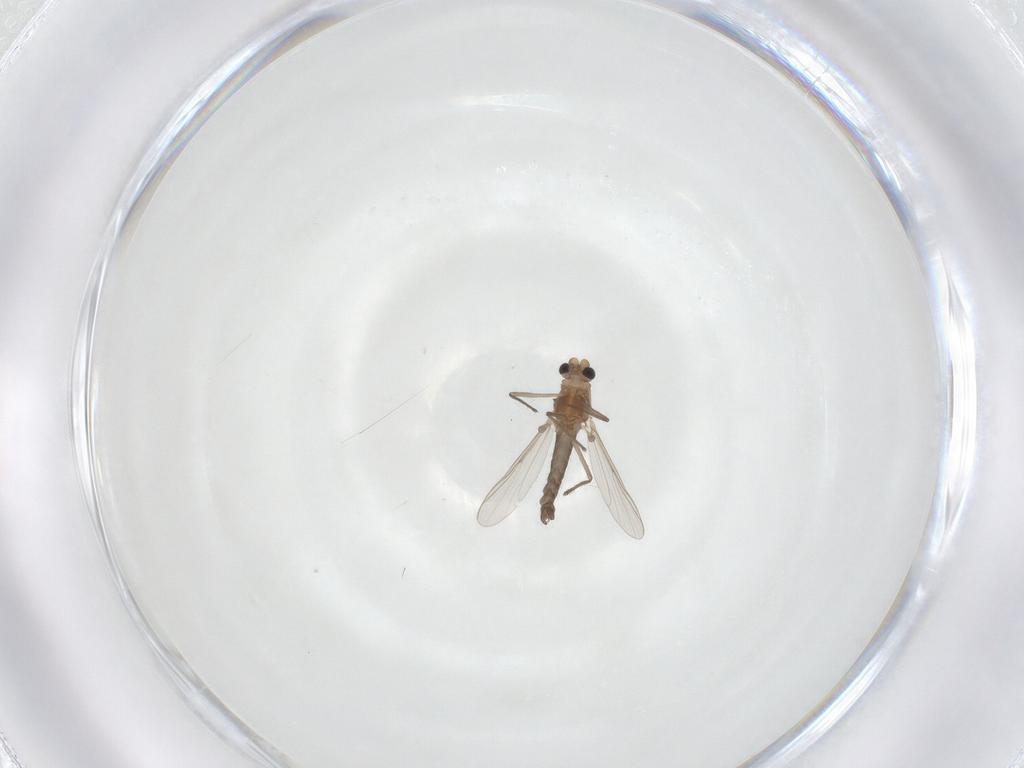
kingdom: Animalia
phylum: Arthropoda
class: Insecta
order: Diptera
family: Chironomidae
